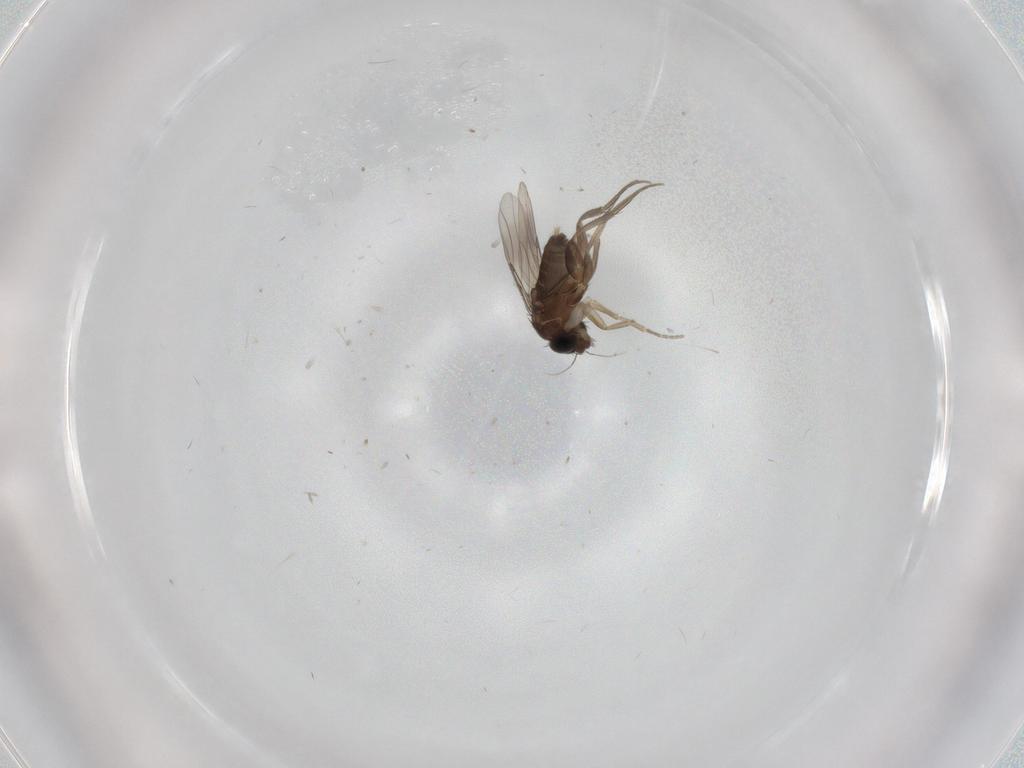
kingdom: Animalia
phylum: Arthropoda
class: Insecta
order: Diptera
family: Phoridae
